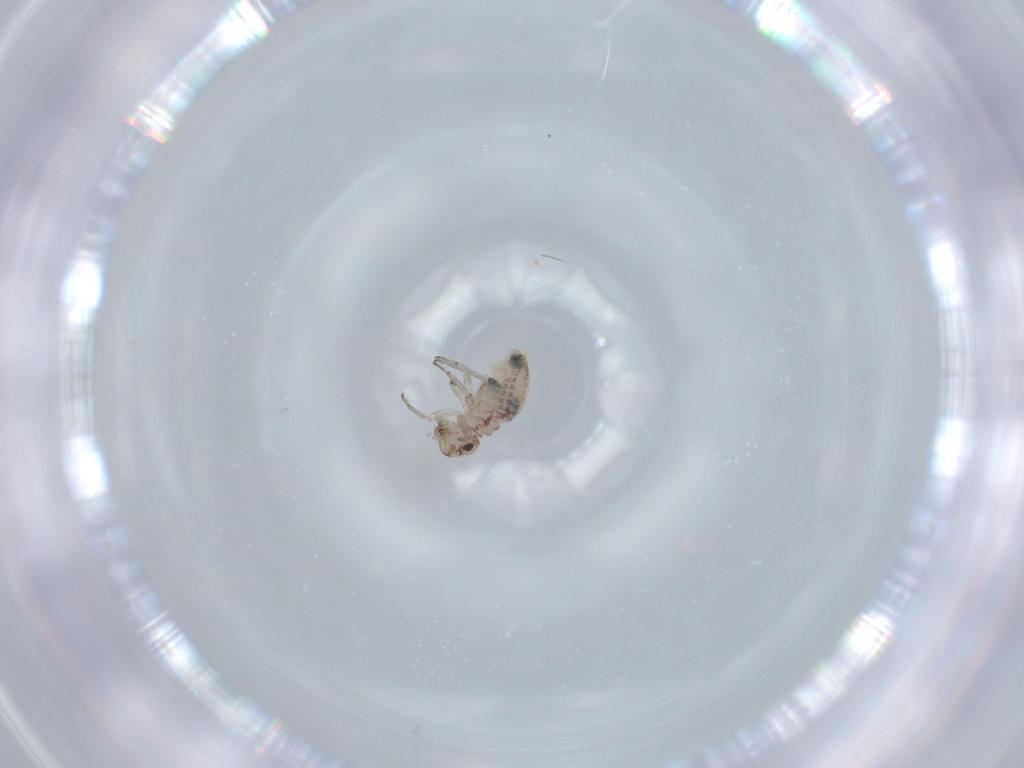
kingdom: Animalia
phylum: Arthropoda
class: Insecta
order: Psocodea
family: Psocidae
